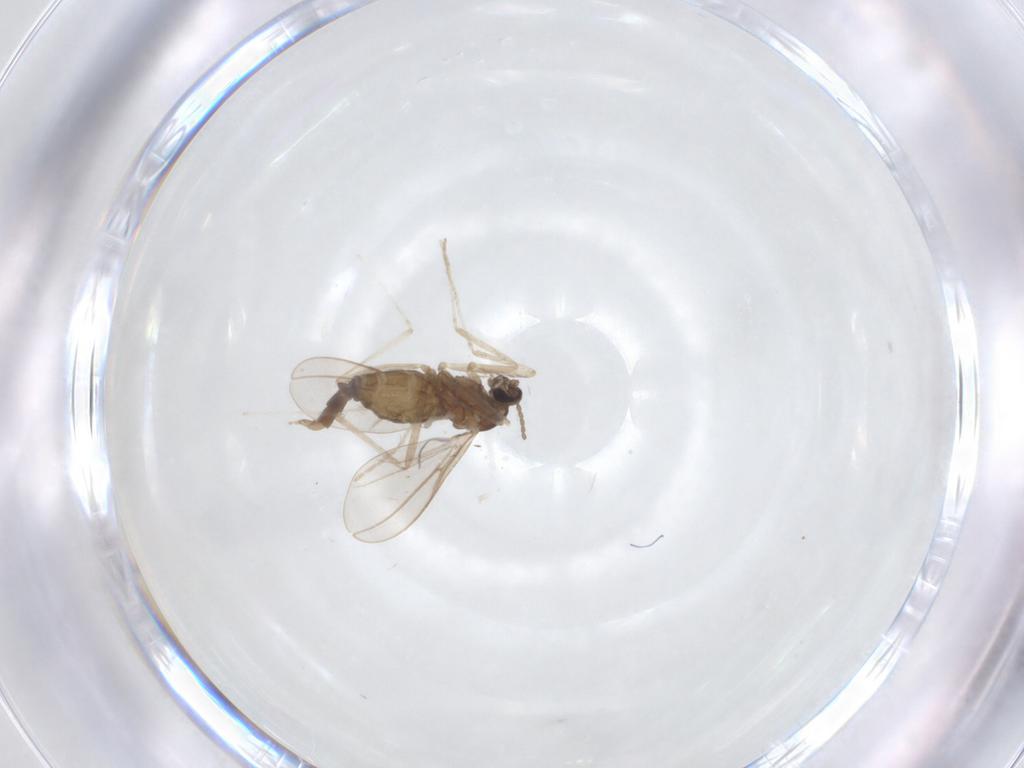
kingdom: Animalia
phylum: Arthropoda
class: Insecta
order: Diptera
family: Cecidomyiidae
